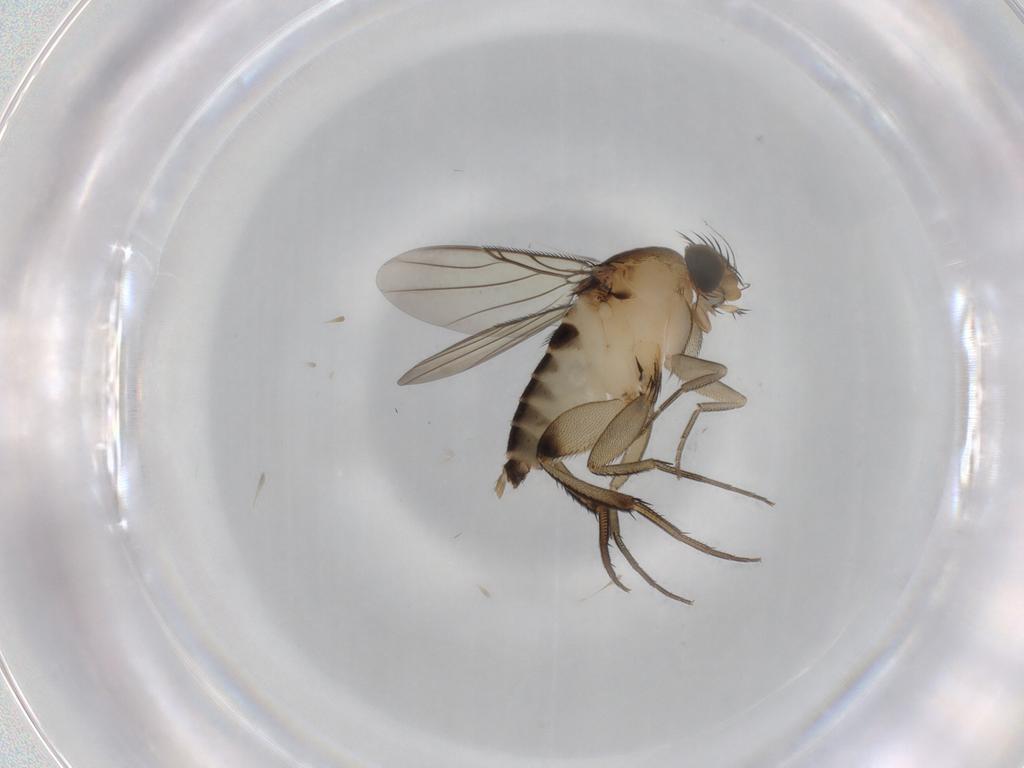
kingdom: Animalia
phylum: Arthropoda
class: Insecta
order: Diptera
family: Phoridae
